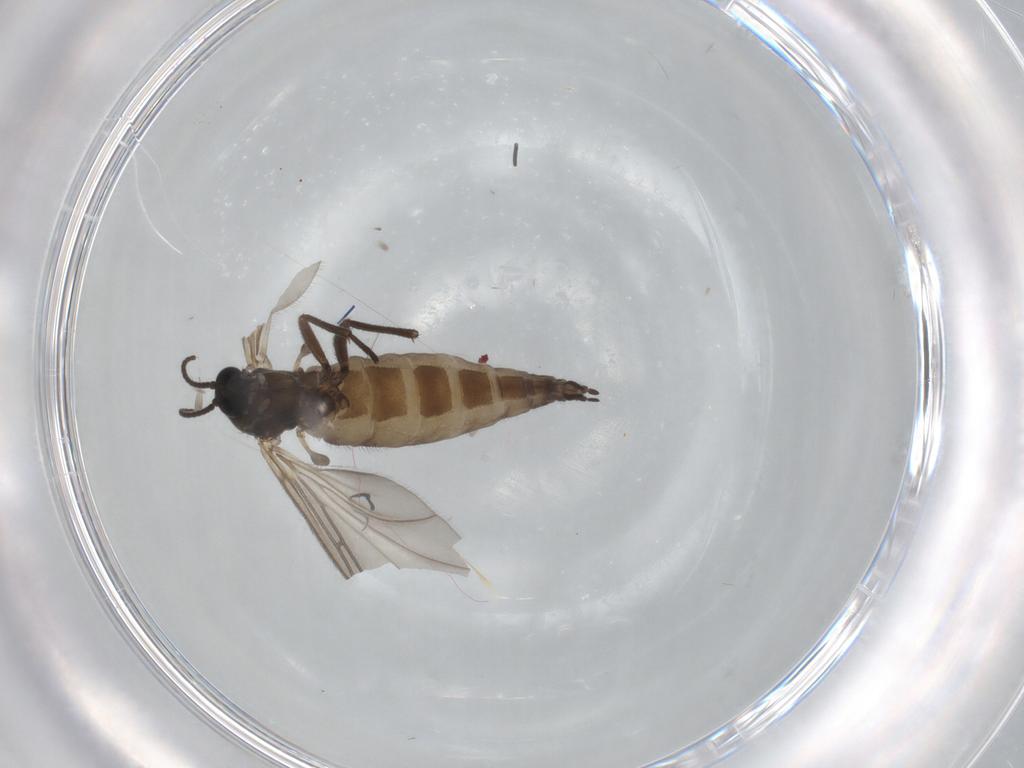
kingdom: Animalia
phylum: Arthropoda
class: Insecta
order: Diptera
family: Sciaridae
